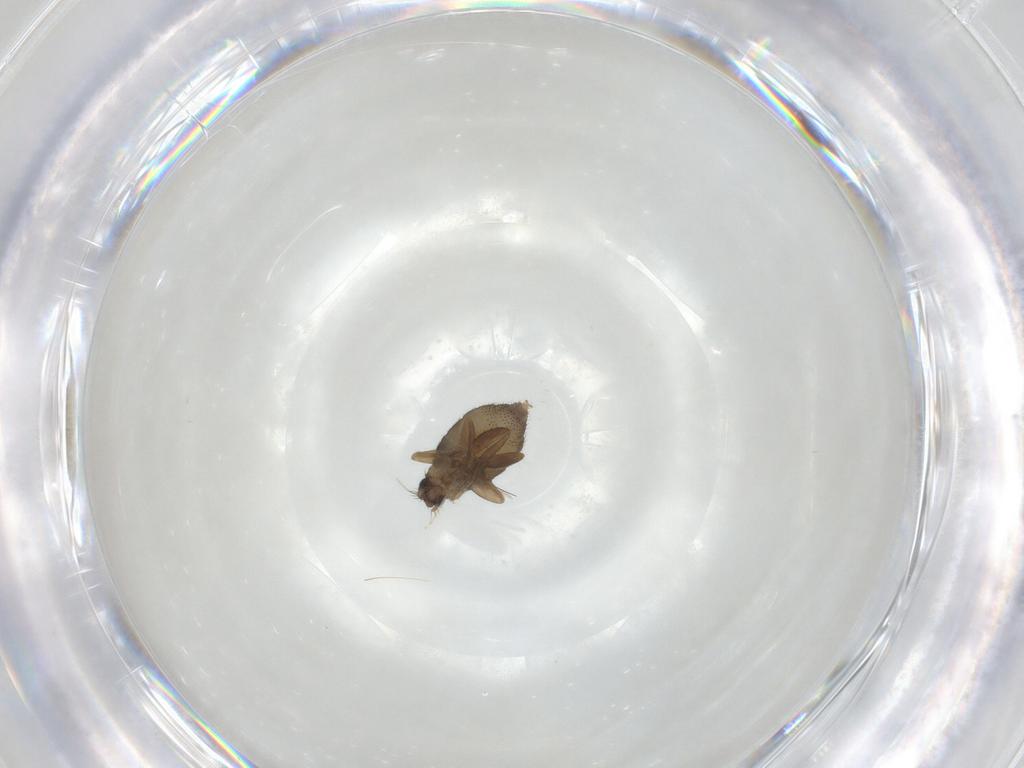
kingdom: Animalia
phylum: Arthropoda
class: Insecta
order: Diptera
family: Phoridae
